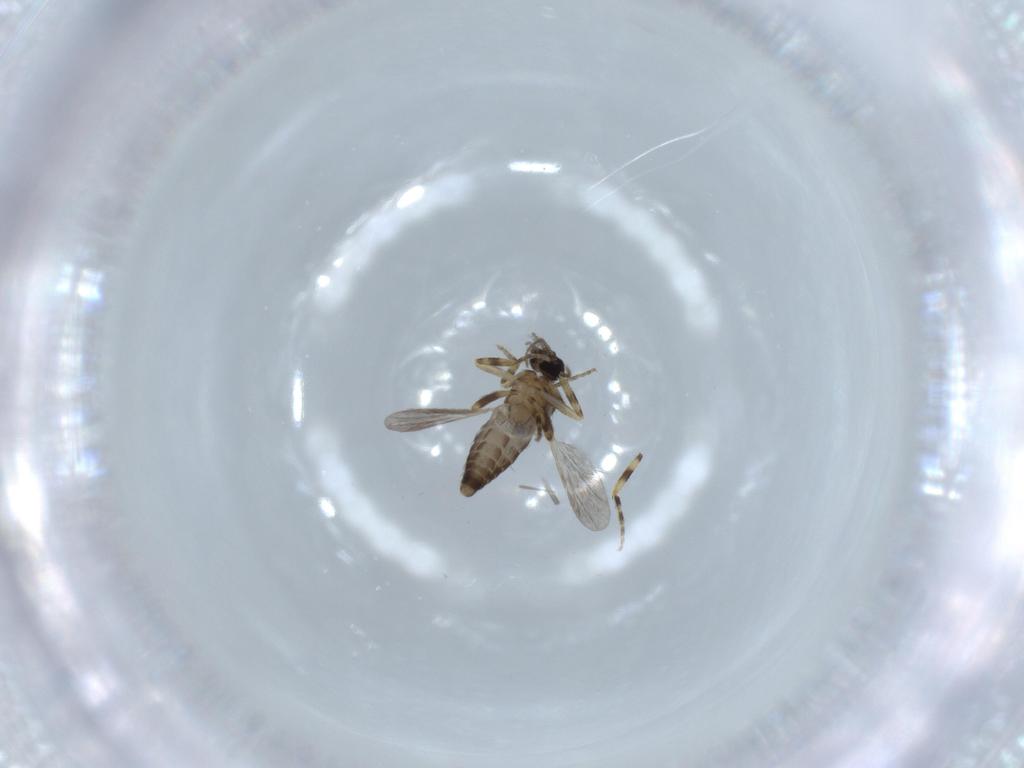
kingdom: Animalia
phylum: Arthropoda
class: Insecta
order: Diptera
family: Sciaridae
